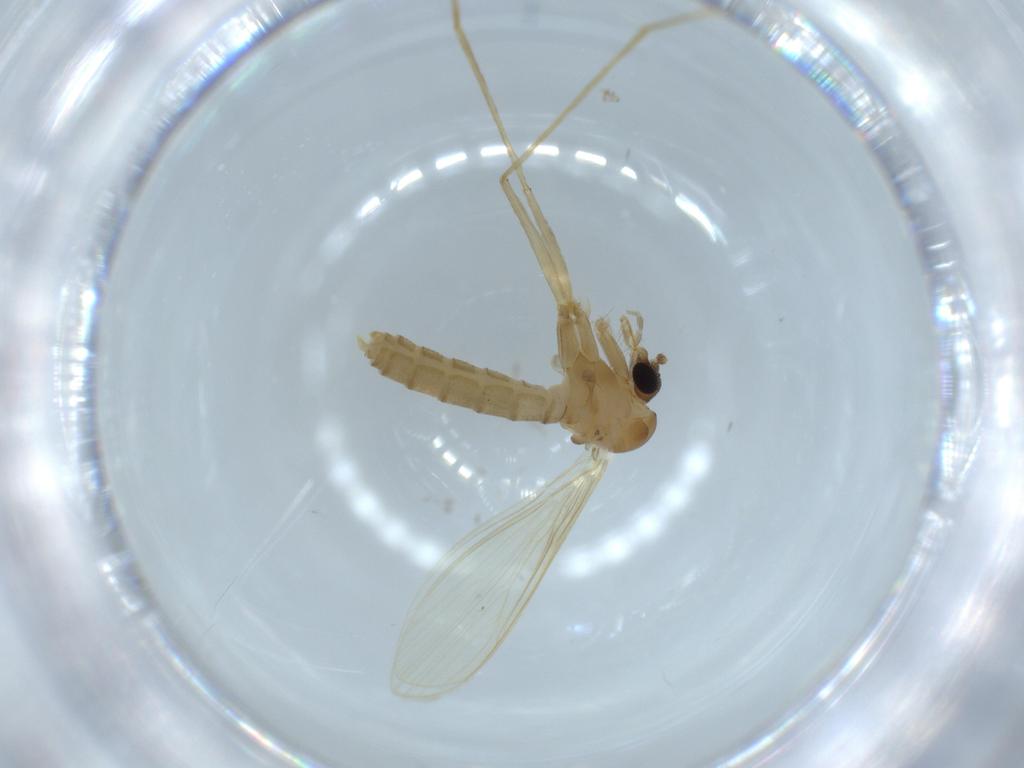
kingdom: Animalia
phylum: Arthropoda
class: Insecta
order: Diptera
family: Psychodidae
